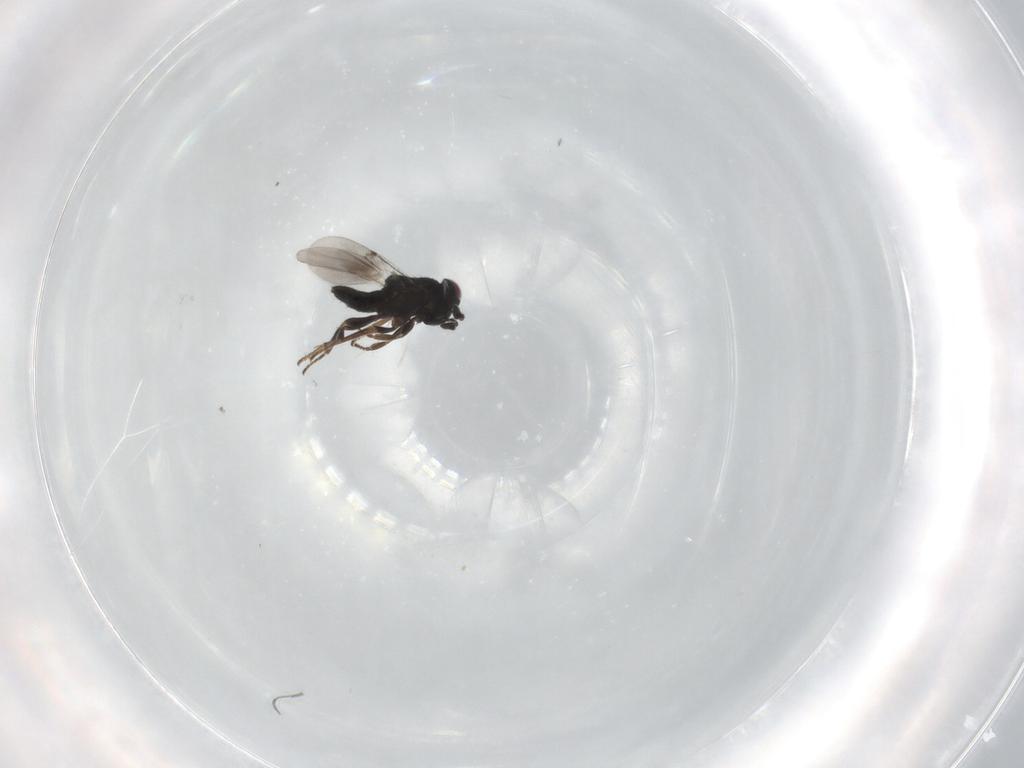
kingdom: Animalia
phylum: Arthropoda
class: Insecta
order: Hymenoptera
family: Encyrtidae
